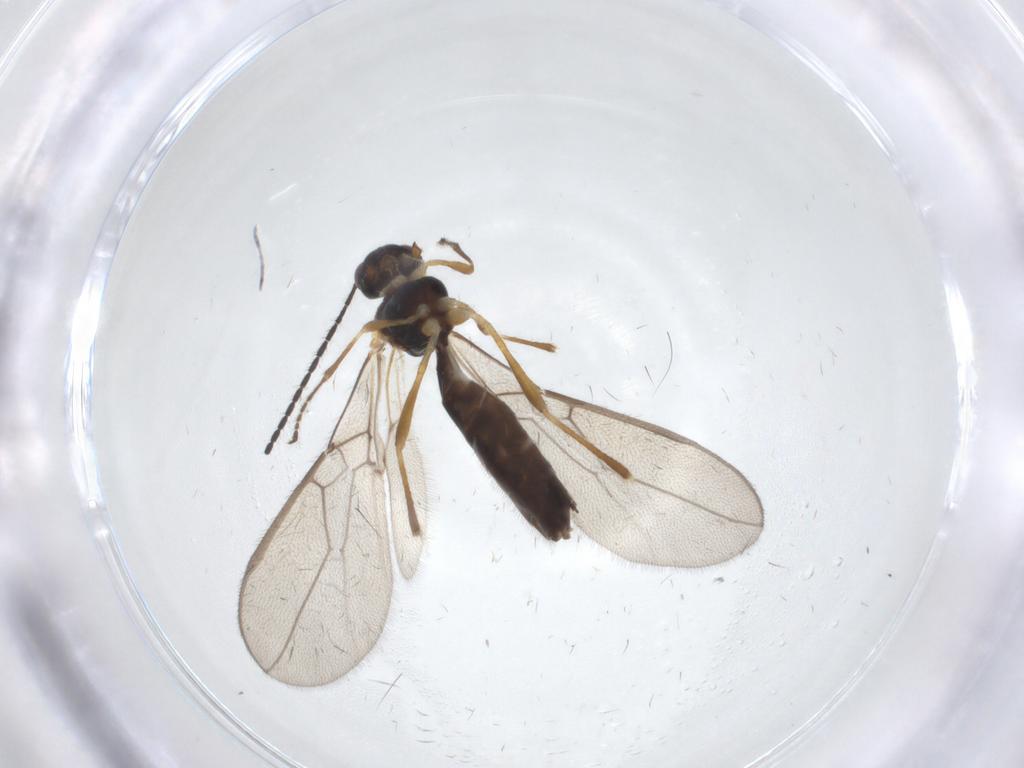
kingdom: Animalia
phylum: Arthropoda
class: Insecta
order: Hymenoptera
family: Braconidae
